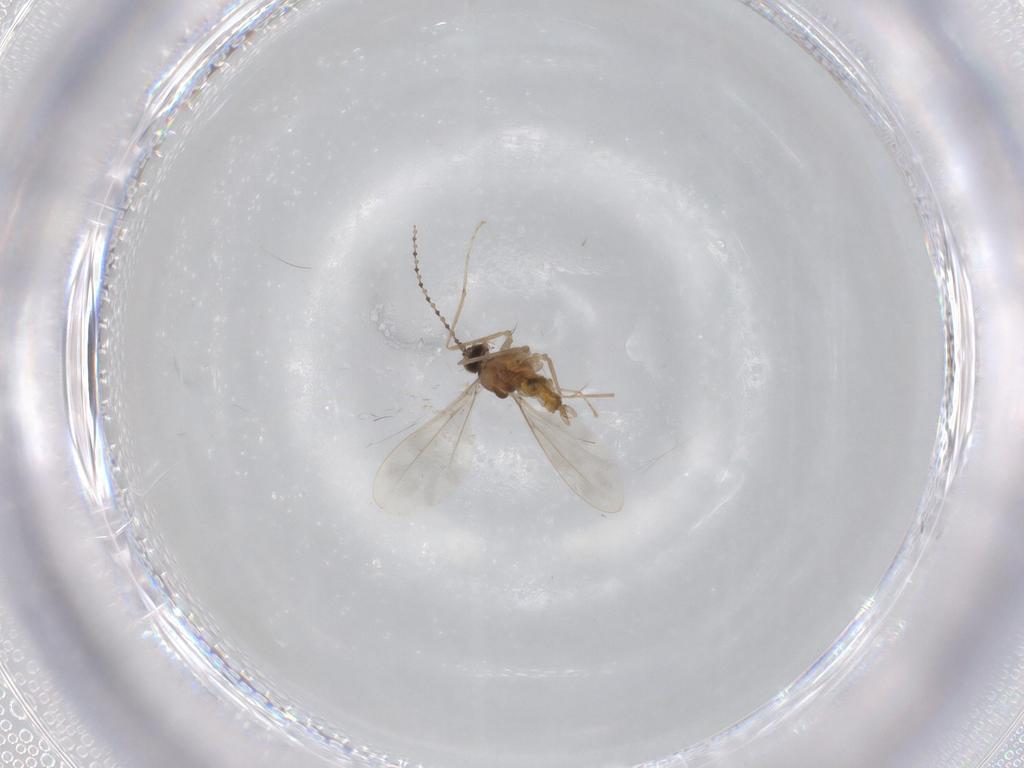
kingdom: Animalia
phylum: Arthropoda
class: Insecta
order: Diptera
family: Cecidomyiidae
